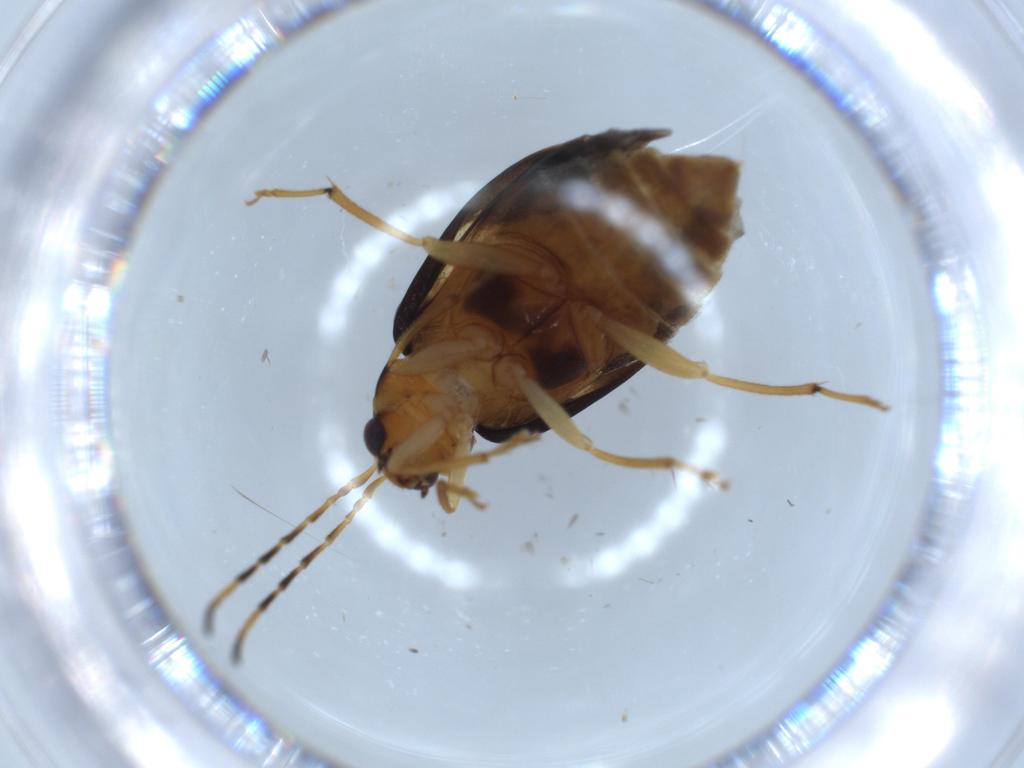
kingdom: Animalia
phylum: Arthropoda
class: Insecta
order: Coleoptera
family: Chrysomelidae
